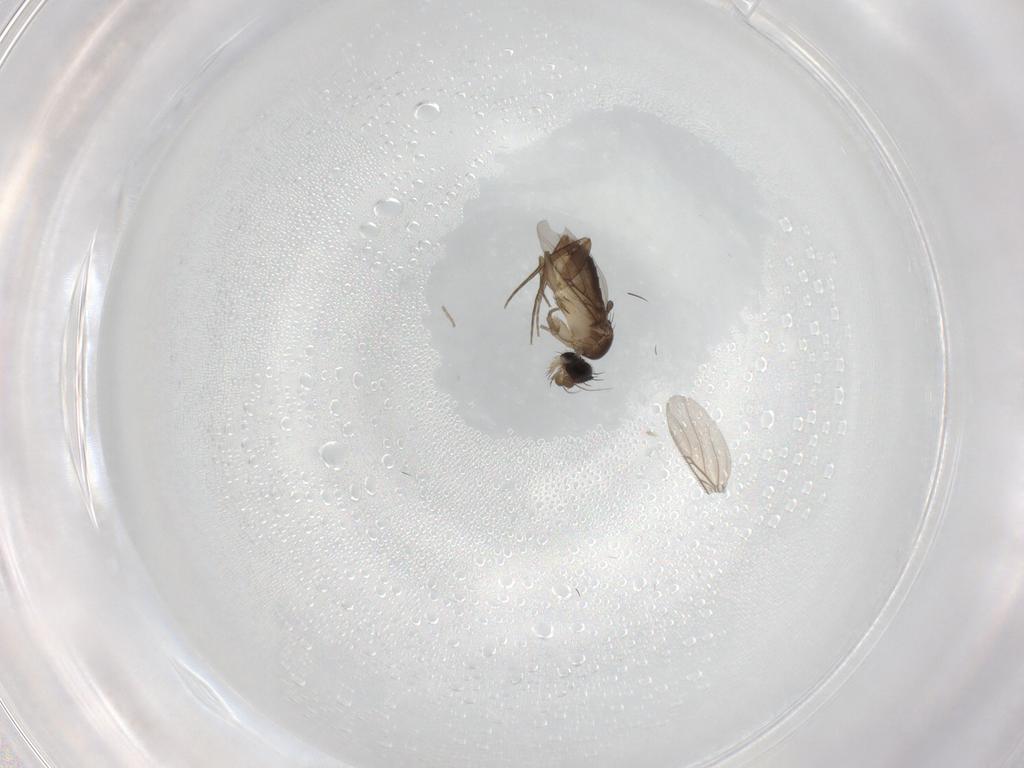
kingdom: Animalia
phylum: Arthropoda
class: Insecta
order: Diptera
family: Phoridae
